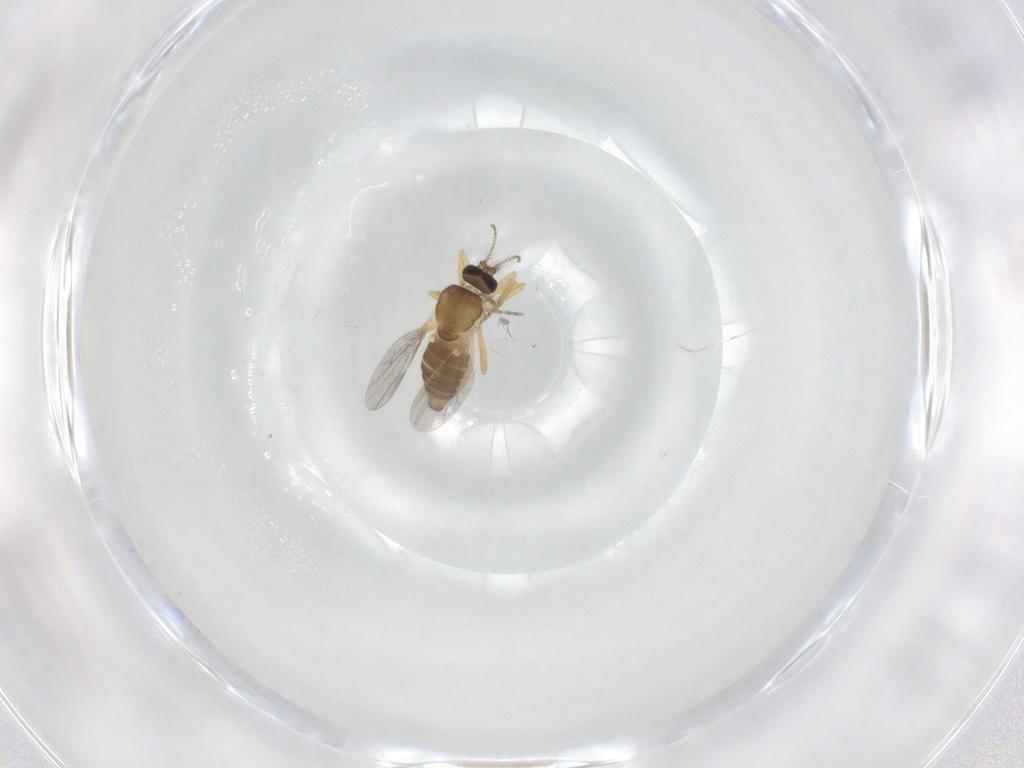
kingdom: Animalia
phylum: Arthropoda
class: Insecta
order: Diptera
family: Ceratopogonidae
